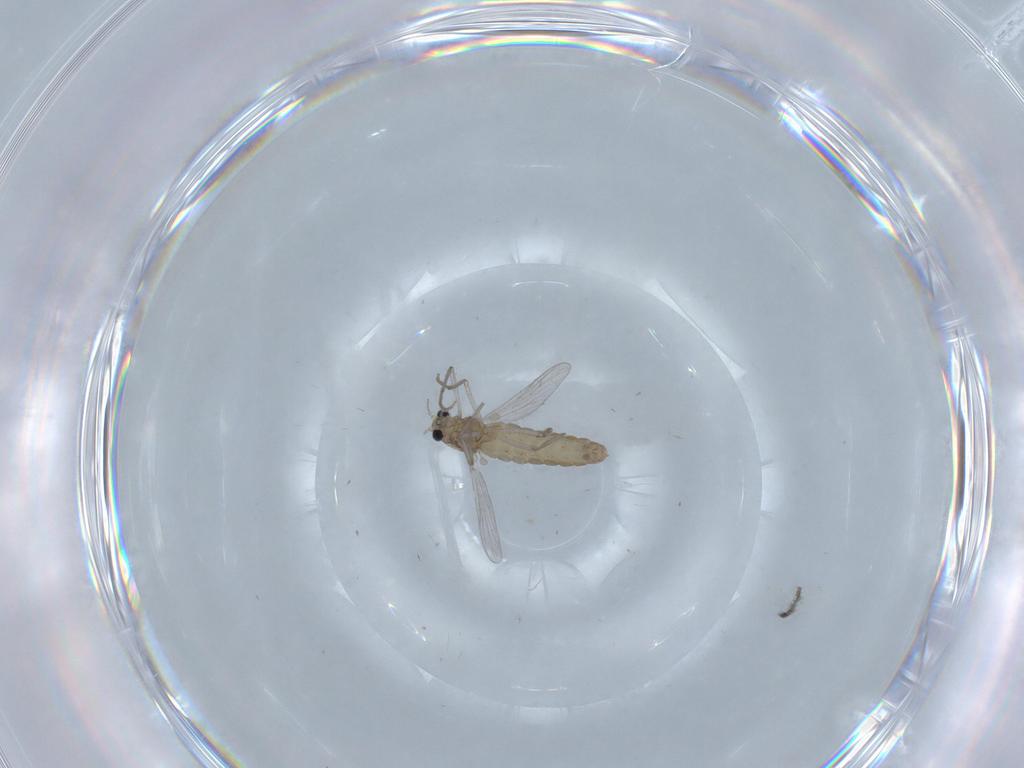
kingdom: Animalia
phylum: Arthropoda
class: Insecta
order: Diptera
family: Chironomidae
